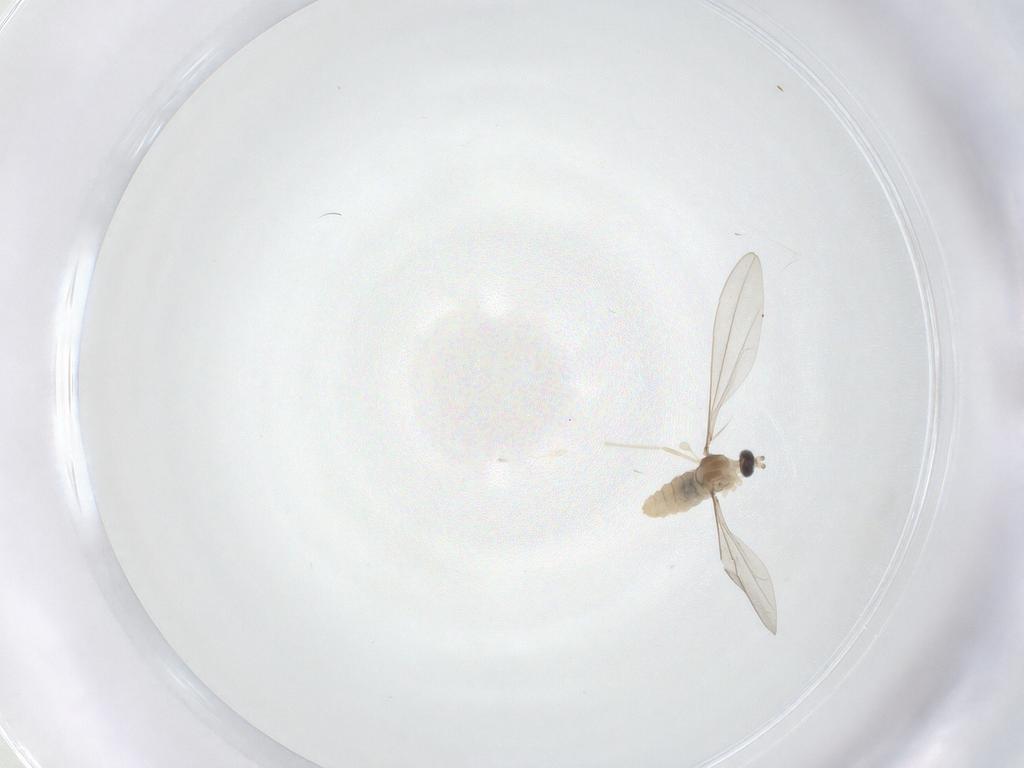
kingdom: Animalia
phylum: Arthropoda
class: Insecta
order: Diptera
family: Cecidomyiidae
